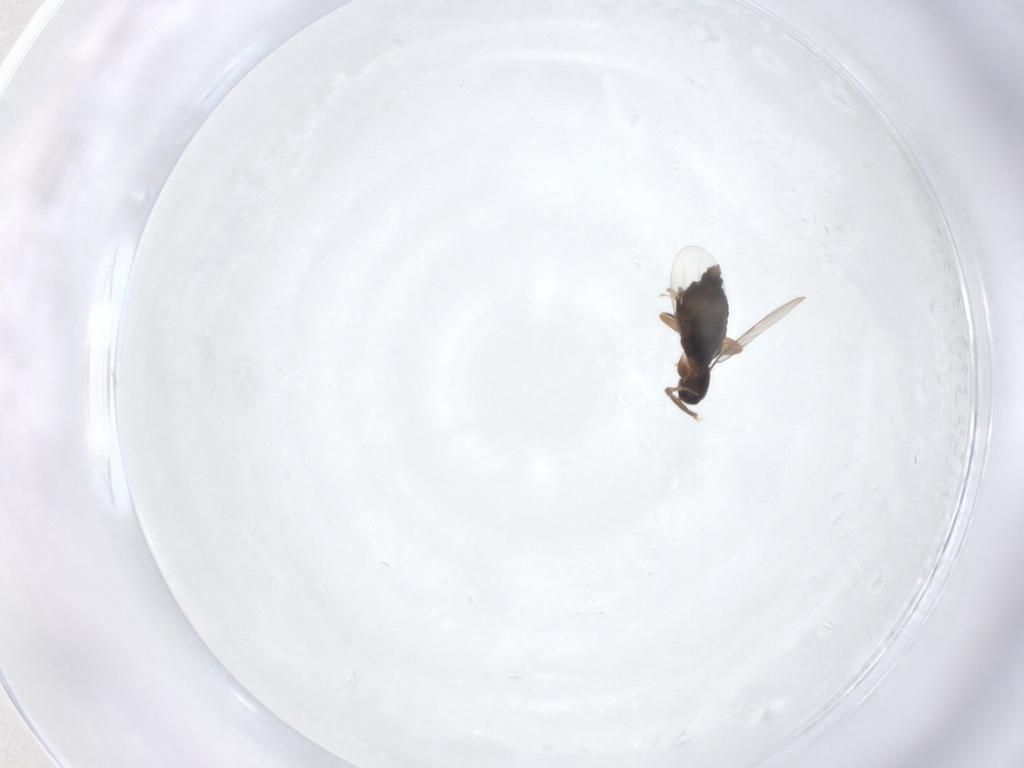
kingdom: Animalia
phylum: Arthropoda
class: Insecta
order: Diptera
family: Phoridae
